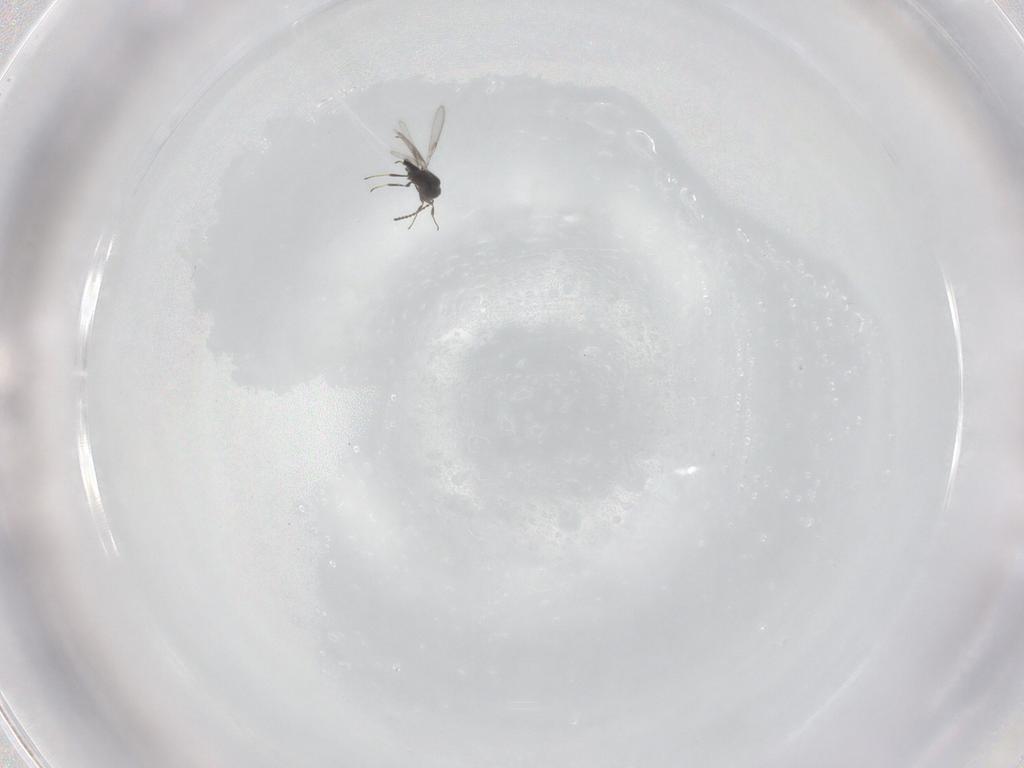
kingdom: Animalia
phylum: Arthropoda
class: Insecta
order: Hymenoptera
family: Scelionidae
